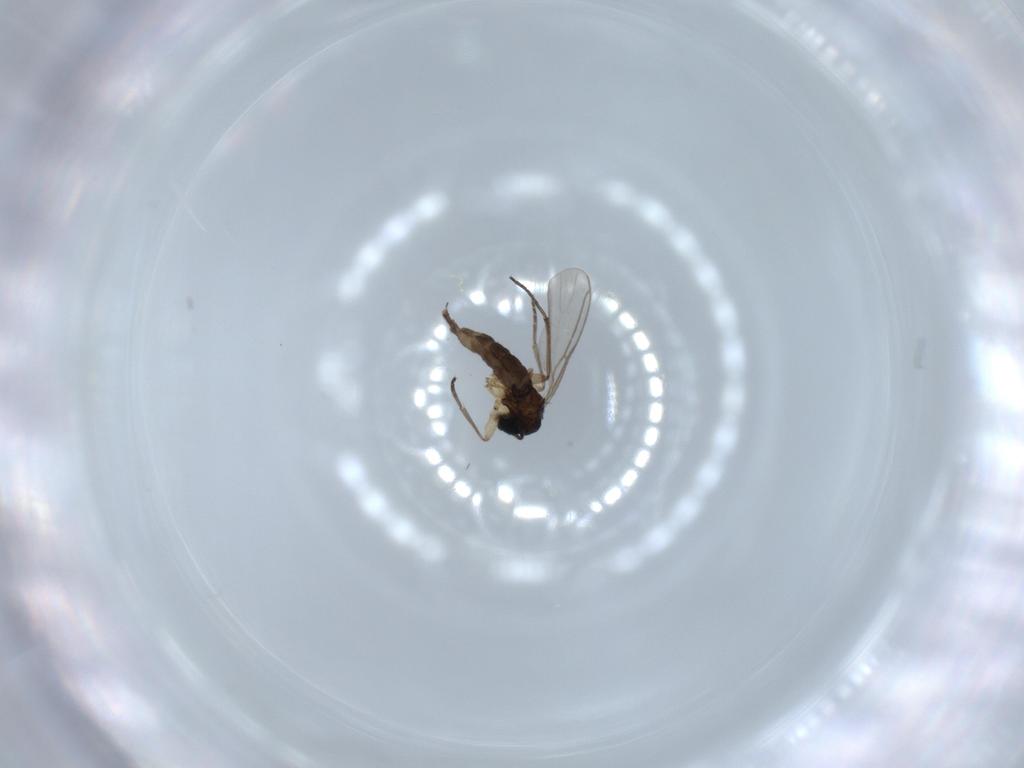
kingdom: Animalia
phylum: Arthropoda
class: Insecta
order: Diptera
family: Sciaridae
